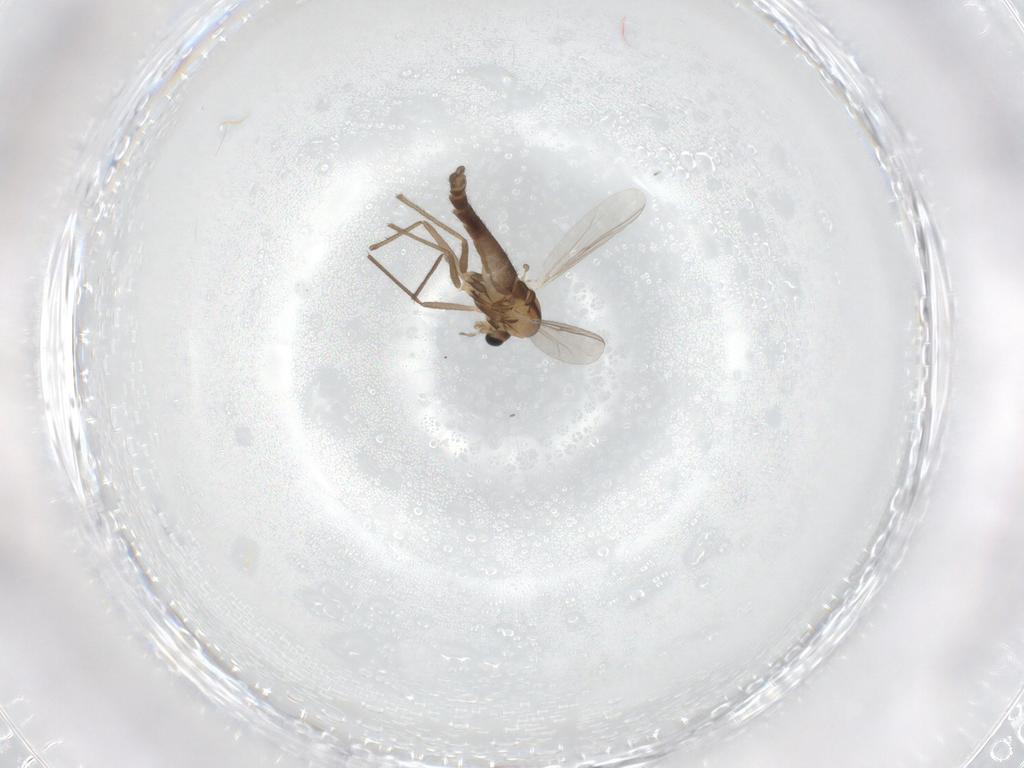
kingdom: Animalia
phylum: Arthropoda
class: Insecta
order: Diptera
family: Chironomidae
